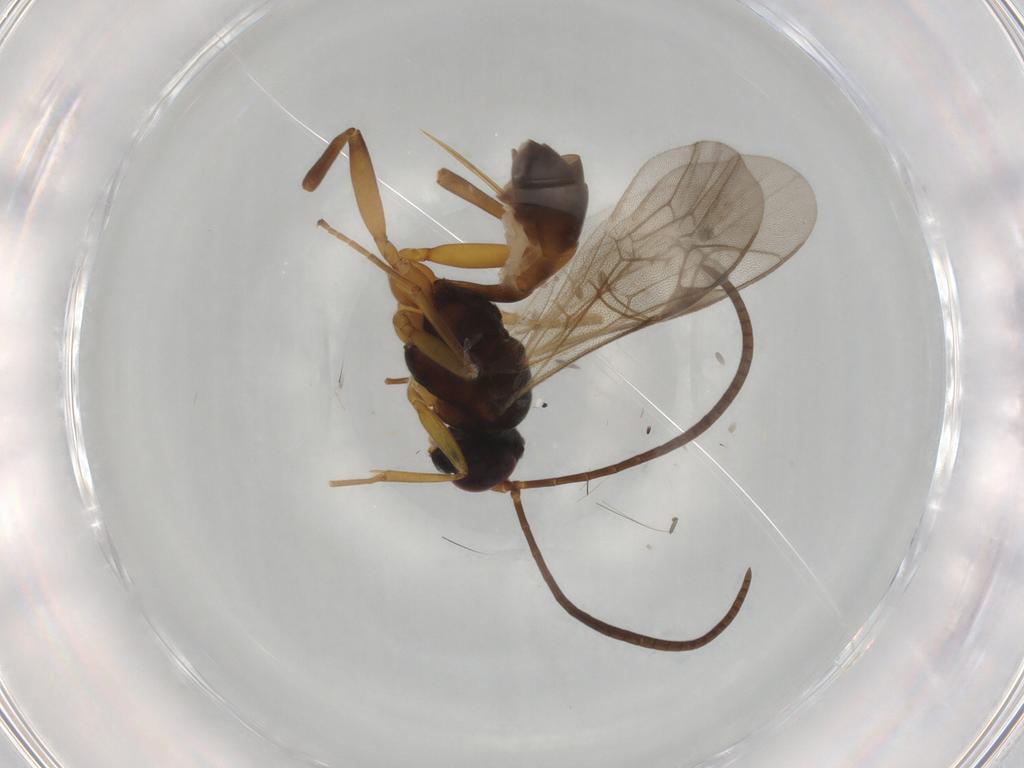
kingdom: Animalia
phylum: Arthropoda
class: Insecta
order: Hymenoptera
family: Ichneumonidae
